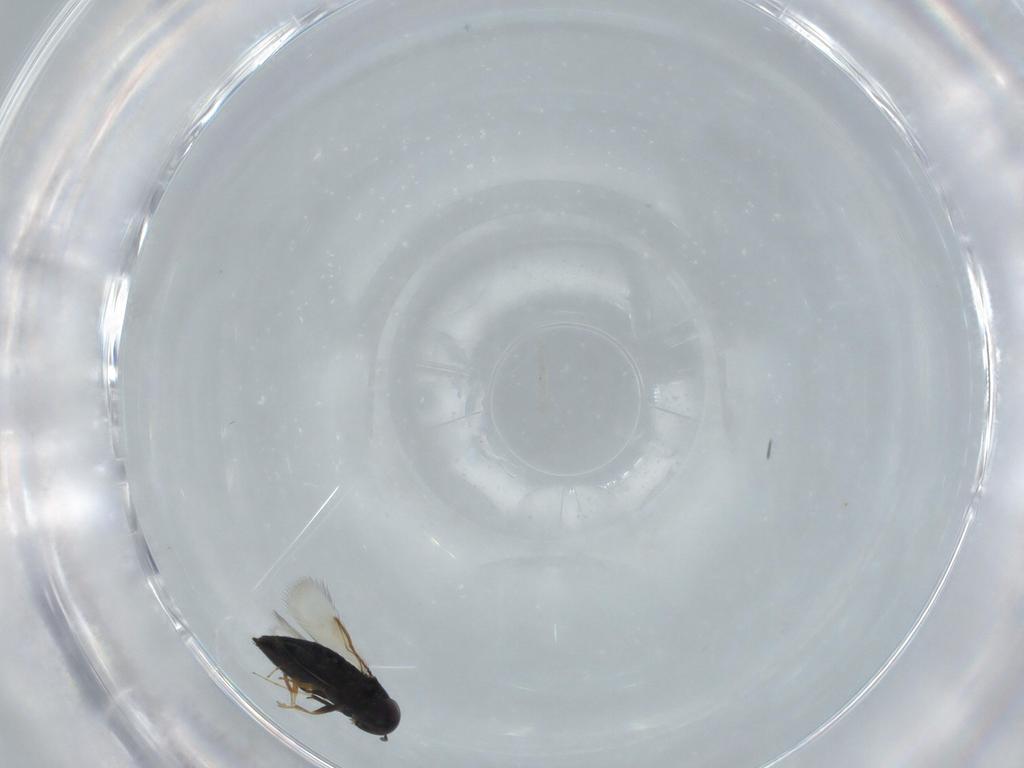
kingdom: Animalia
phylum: Arthropoda
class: Insecta
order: Hymenoptera
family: Signiphoridae
